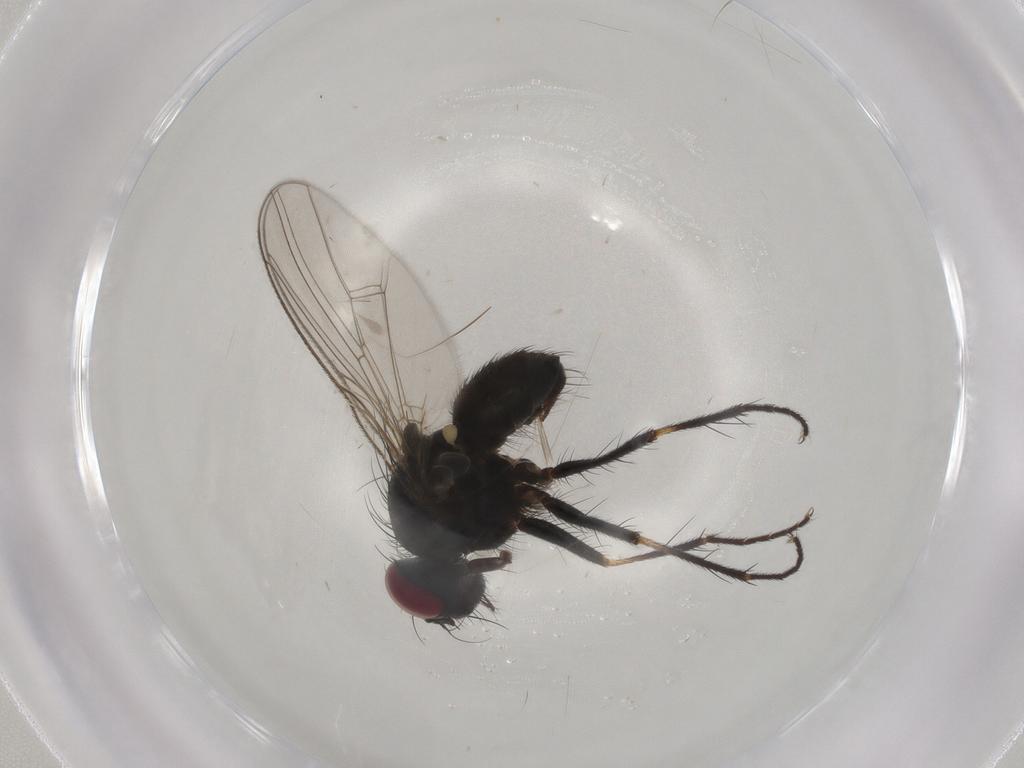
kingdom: Animalia
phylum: Arthropoda
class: Insecta
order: Diptera
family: Muscidae
